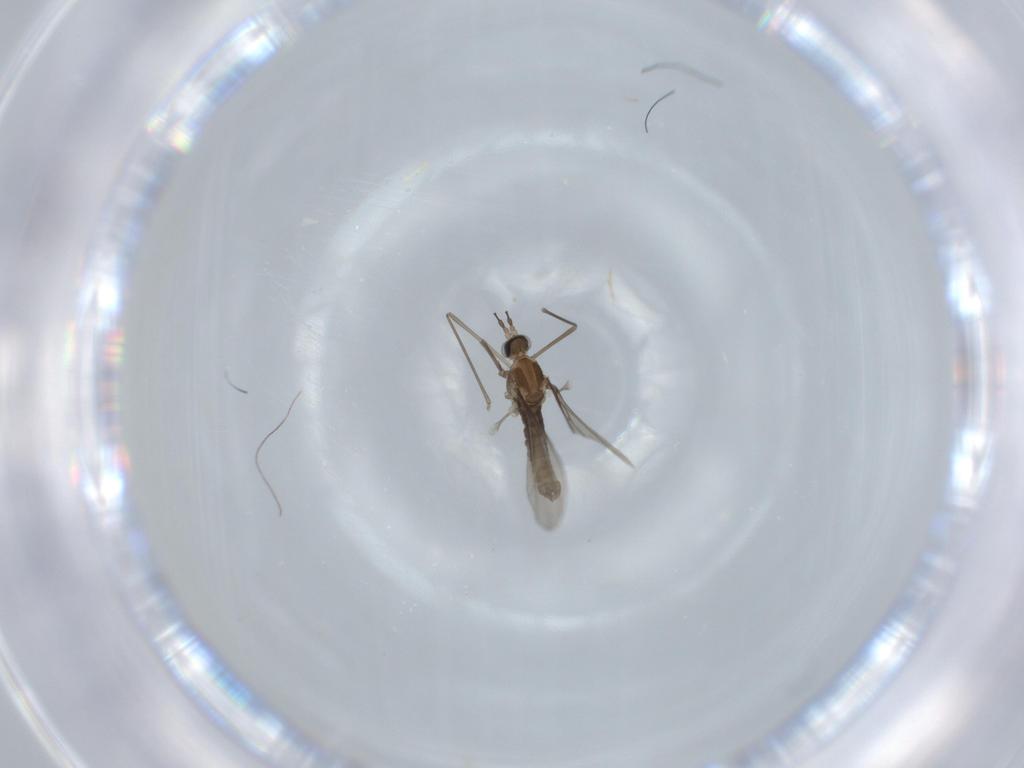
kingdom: Animalia
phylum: Arthropoda
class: Insecta
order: Diptera
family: Cecidomyiidae
